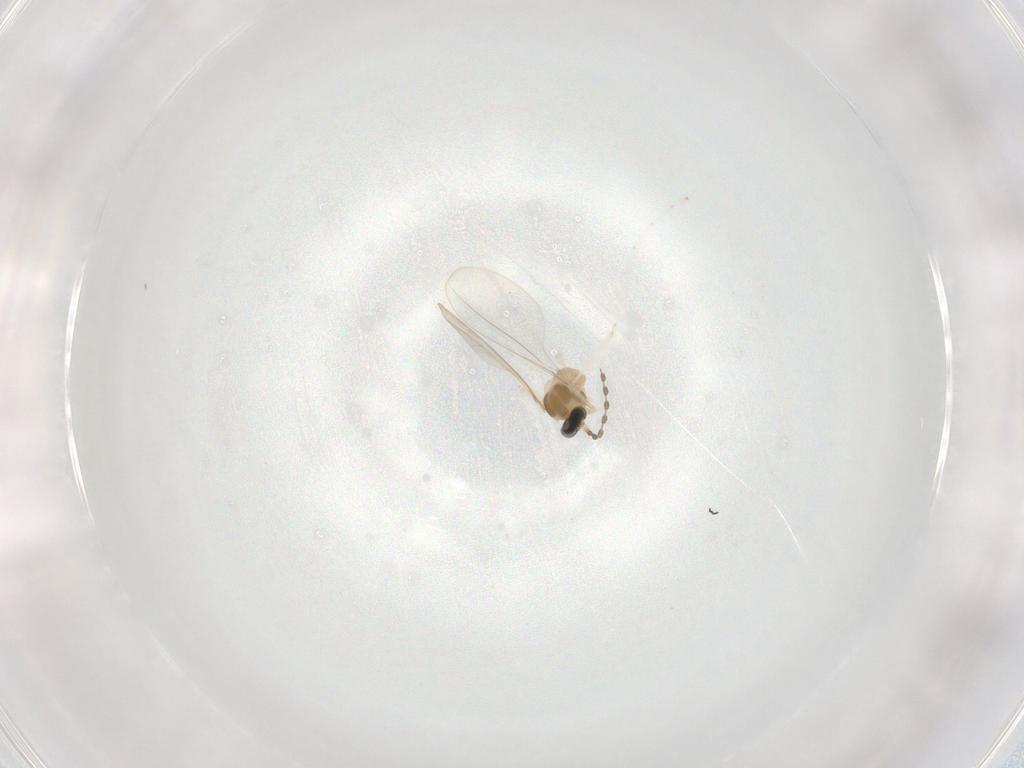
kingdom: Animalia
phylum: Arthropoda
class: Insecta
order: Diptera
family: Cecidomyiidae
